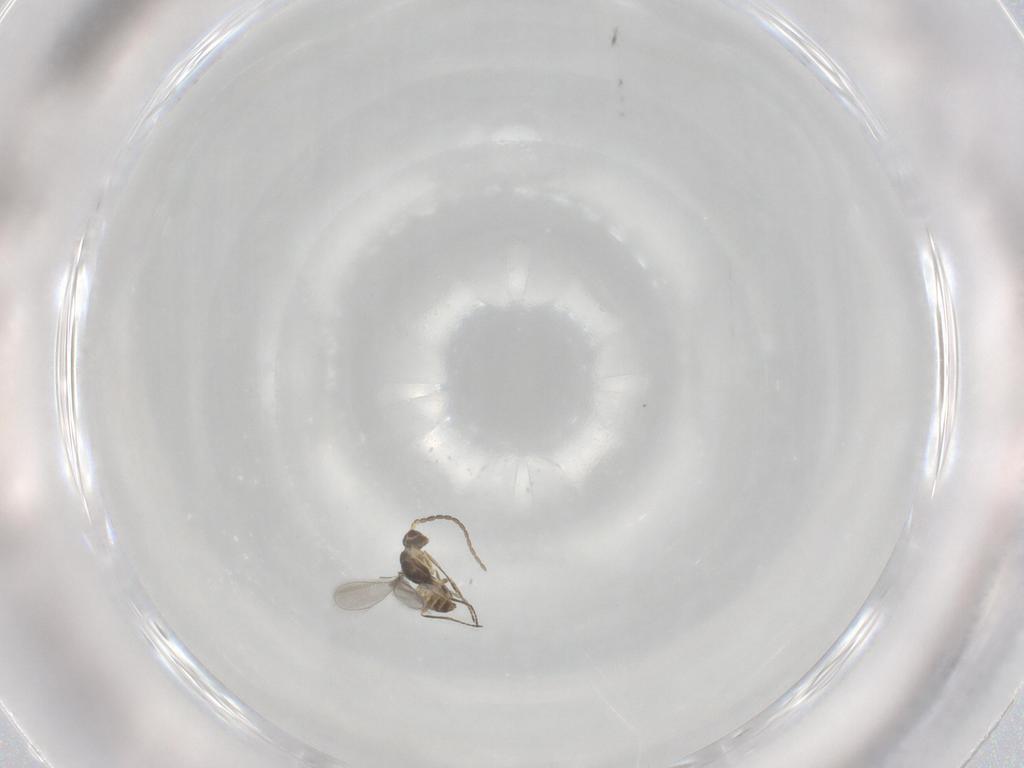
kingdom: Animalia
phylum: Arthropoda
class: Insecta
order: Hymenoptera
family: Mymaridae
